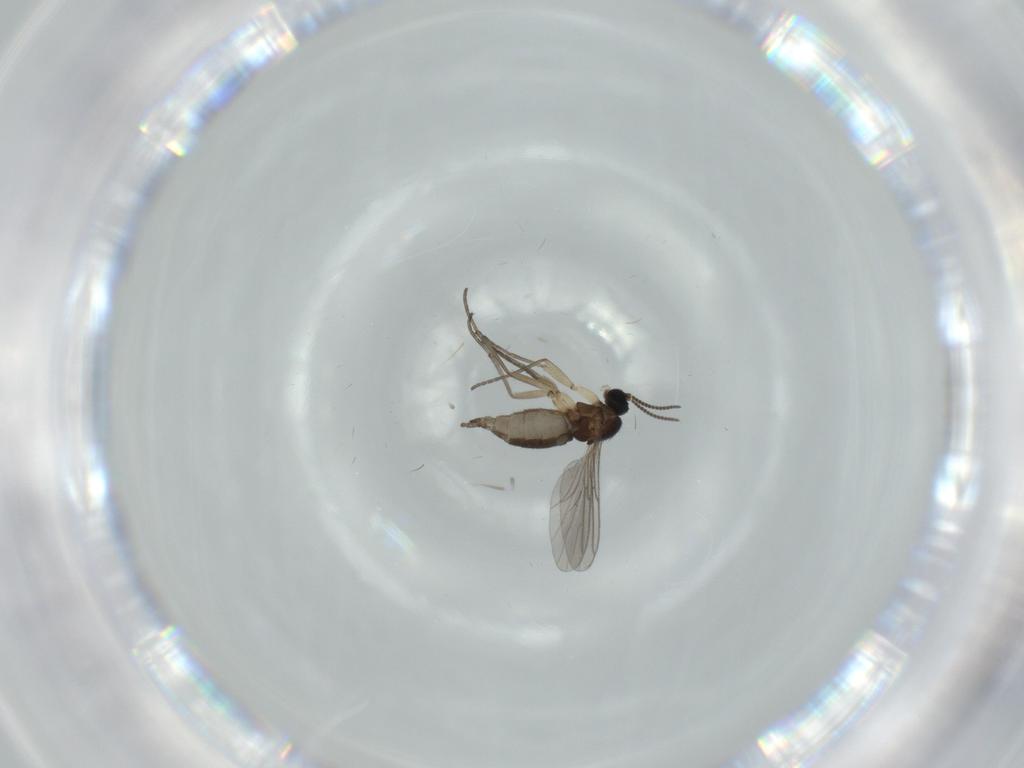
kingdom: Animalia
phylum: Arthropoda
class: Insecta
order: Diptera
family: Sciaridae
